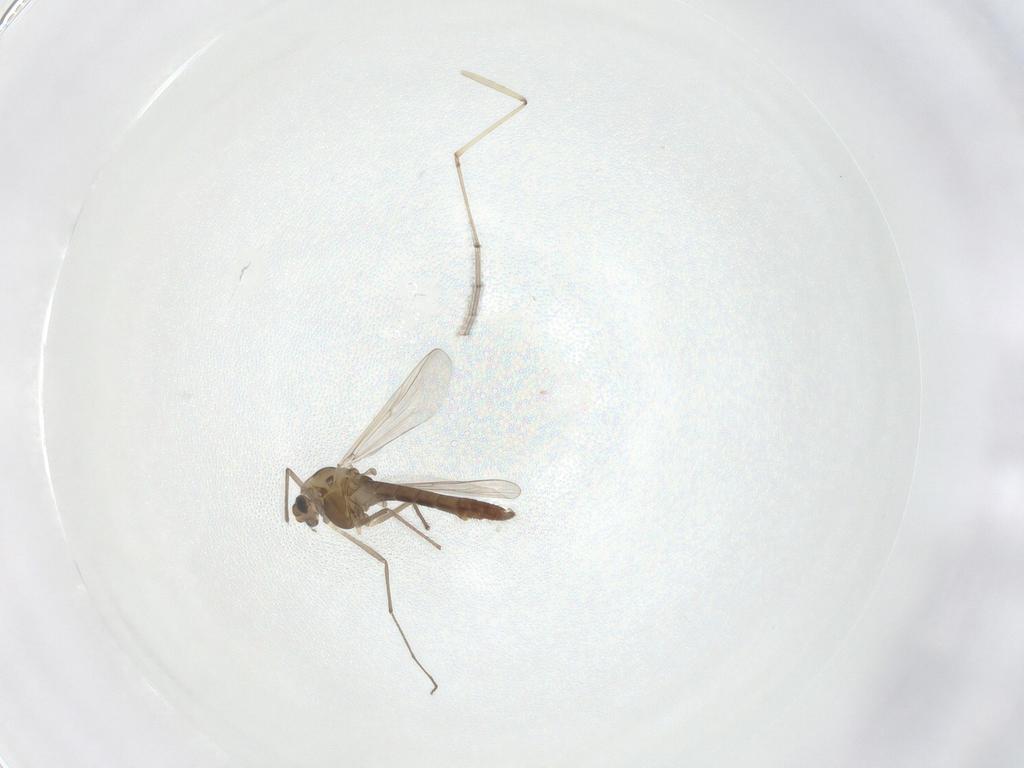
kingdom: Animalia
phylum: Arthropoda
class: Insecta
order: Diptera
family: Chironomidae
